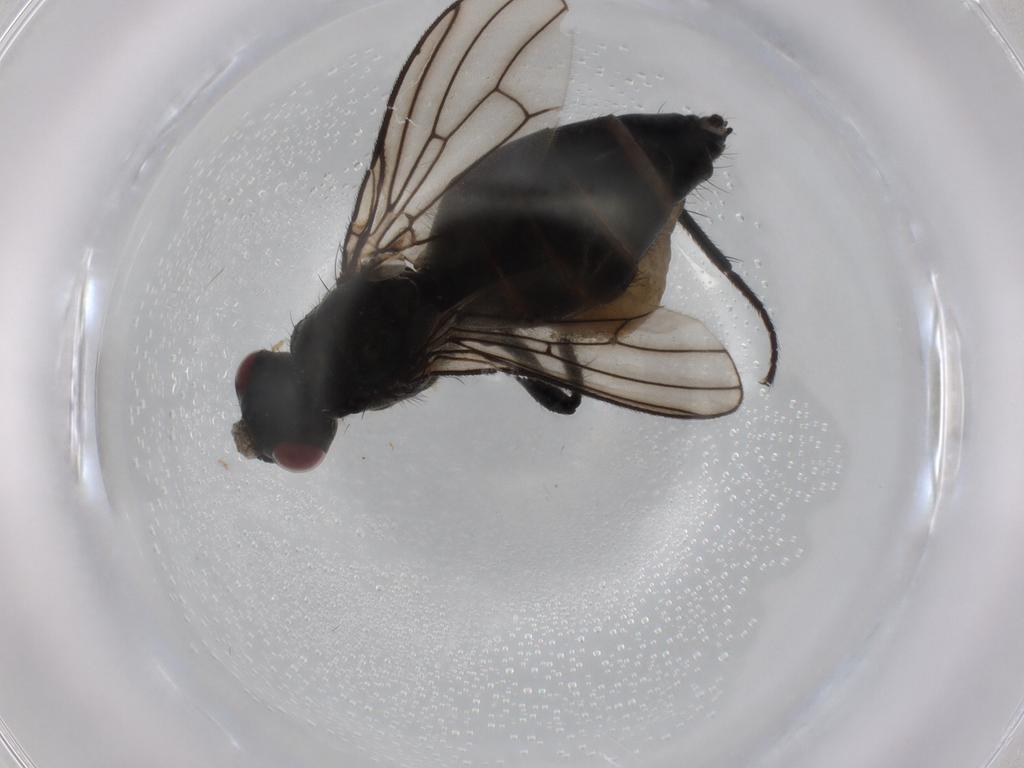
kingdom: Animalia
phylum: Arthropoda
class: Insecta
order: Diptera
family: Scathophagidae
